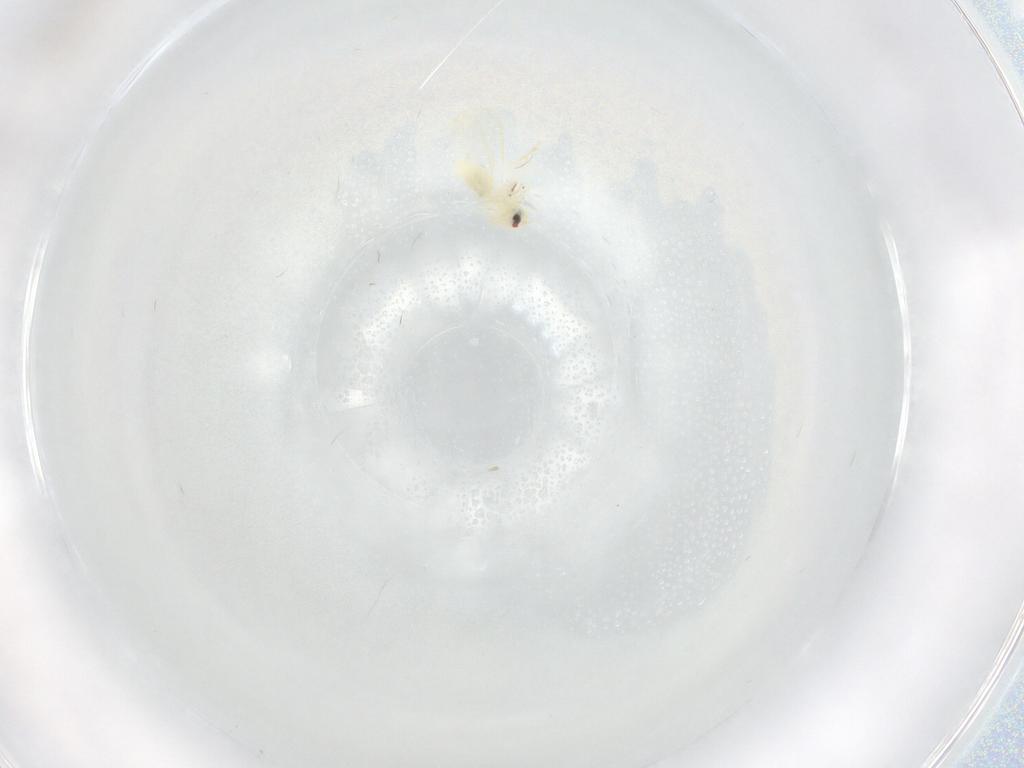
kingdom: Animalia
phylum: Arthropoda
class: Insecta
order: Hemiptera
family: Aleyrodidae
